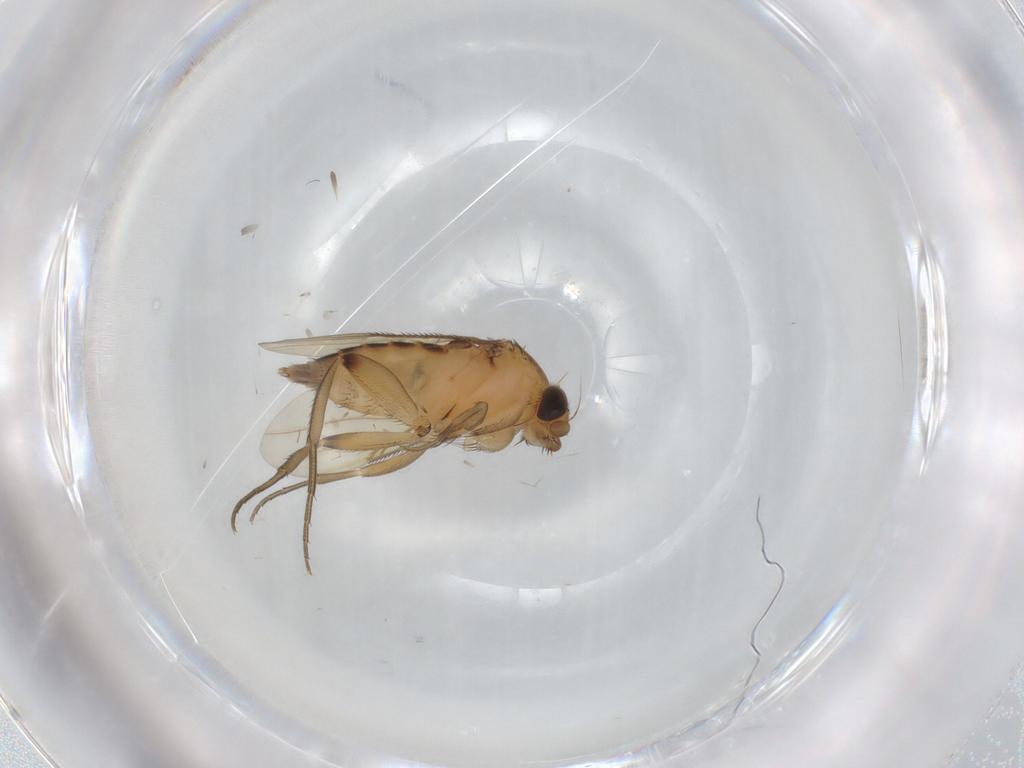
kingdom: Animalia
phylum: Arthropoda
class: Insecta
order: Diptera
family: Phoridae
